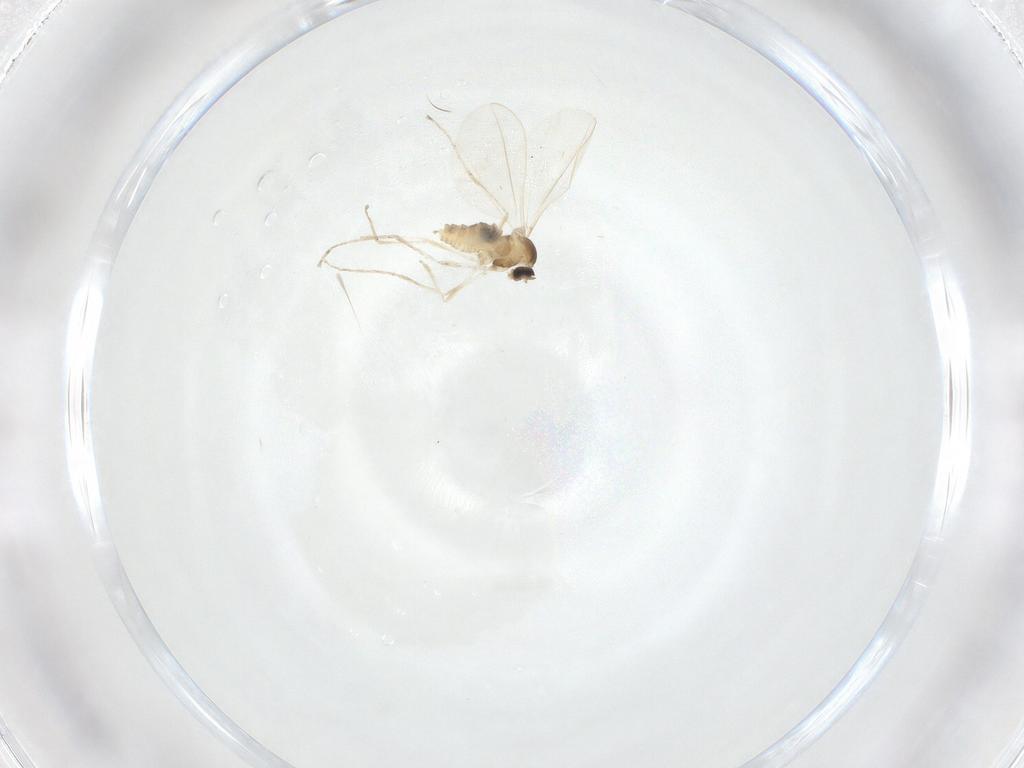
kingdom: Animalia
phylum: Arthropoda
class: Insecta
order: Diptera
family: Cecidomyiidae
